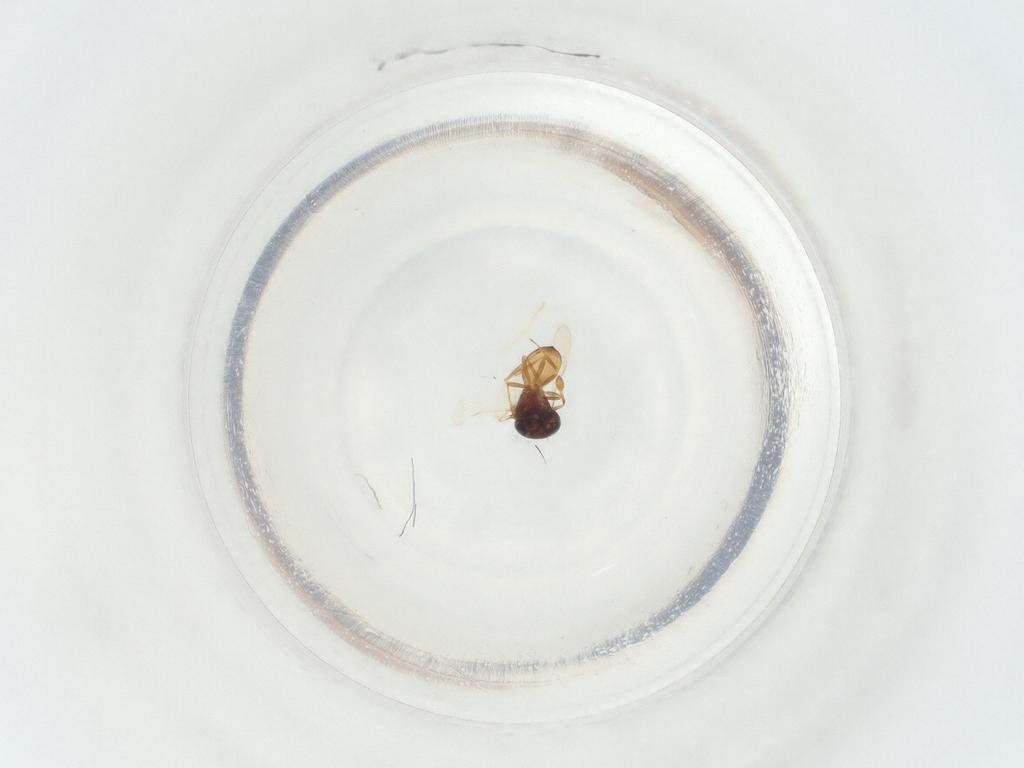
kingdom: Animalia
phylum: Arthropoda
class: Insecta
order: Hymenoptera
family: Scelionidae
